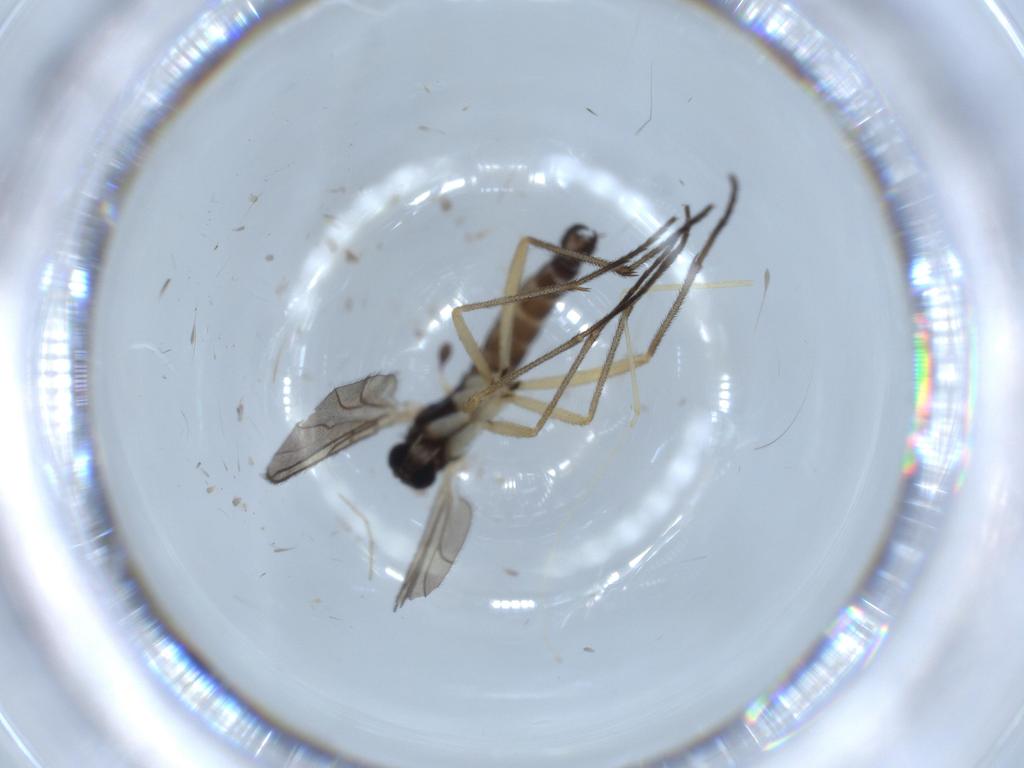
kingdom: Animalia
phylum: Arthropoda
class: Insecta
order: Diptera
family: Sciaridae
